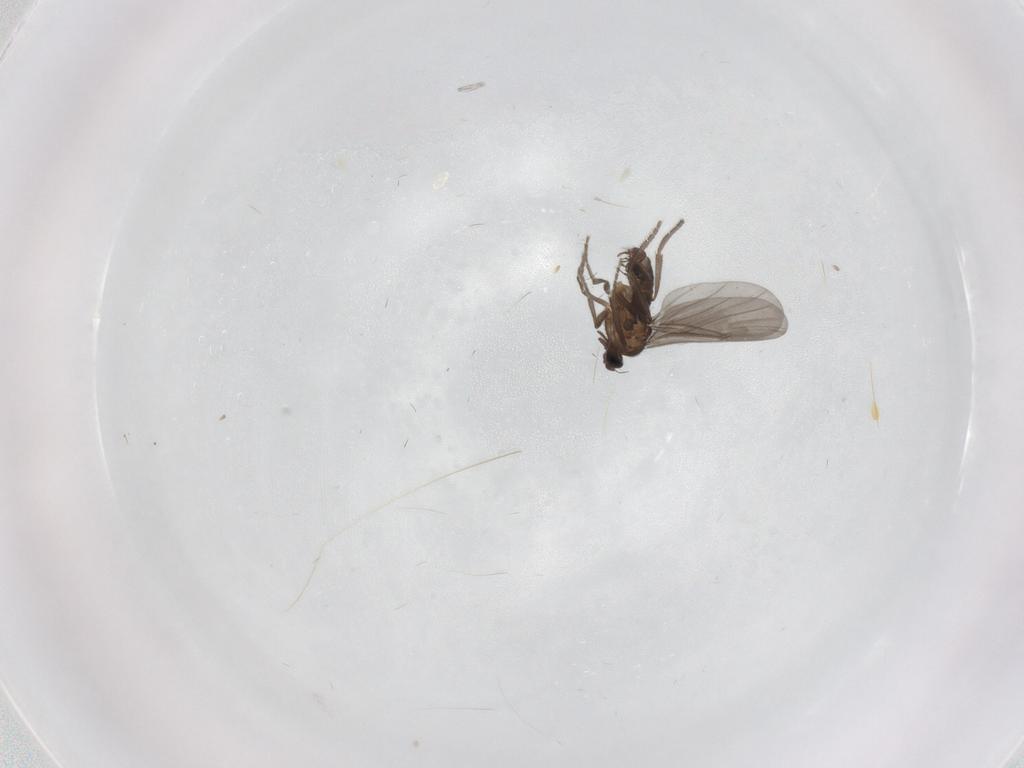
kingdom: Animalia
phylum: Arthropoda
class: Insecta
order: Diptera
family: Phoridae
